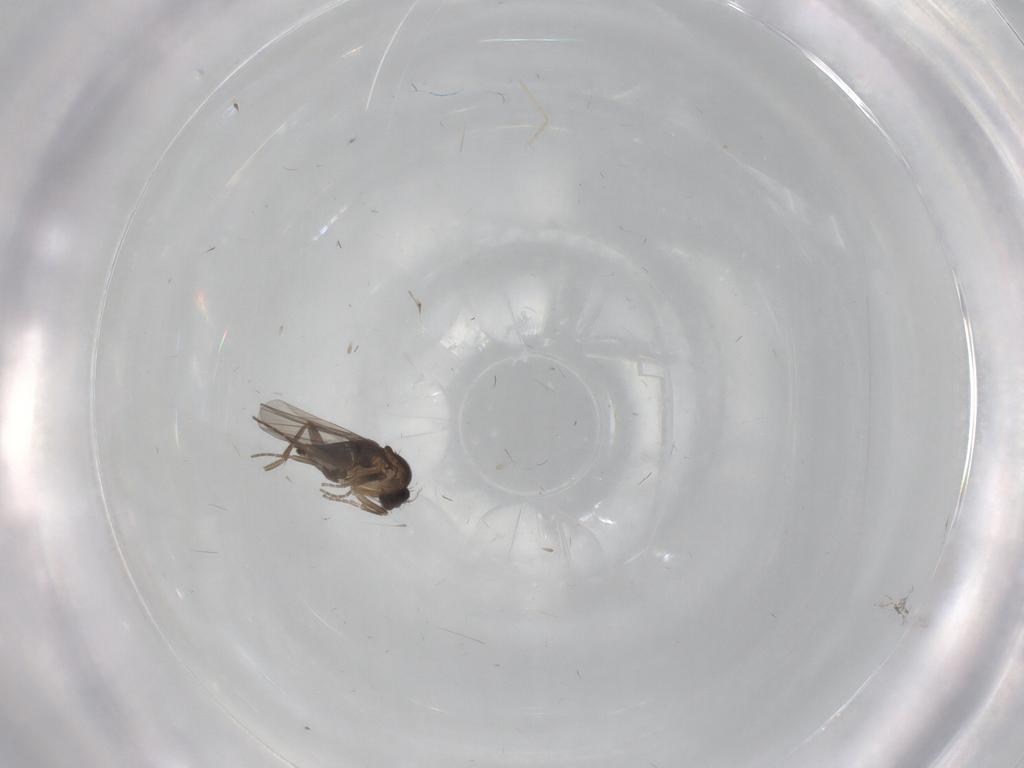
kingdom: Animalia
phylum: Arthropoda
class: Insecta
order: Diptera
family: Phoridae
